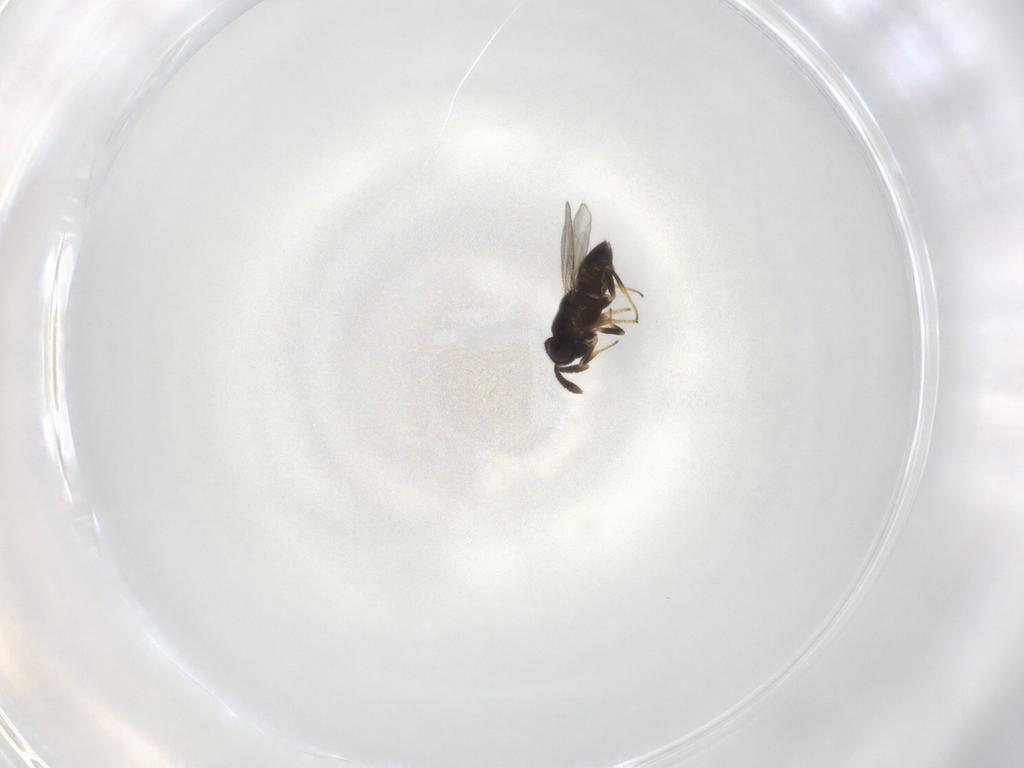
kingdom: Animalia
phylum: Arthropoda
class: Insecta
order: Hymenoptera
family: Encyrtidae
